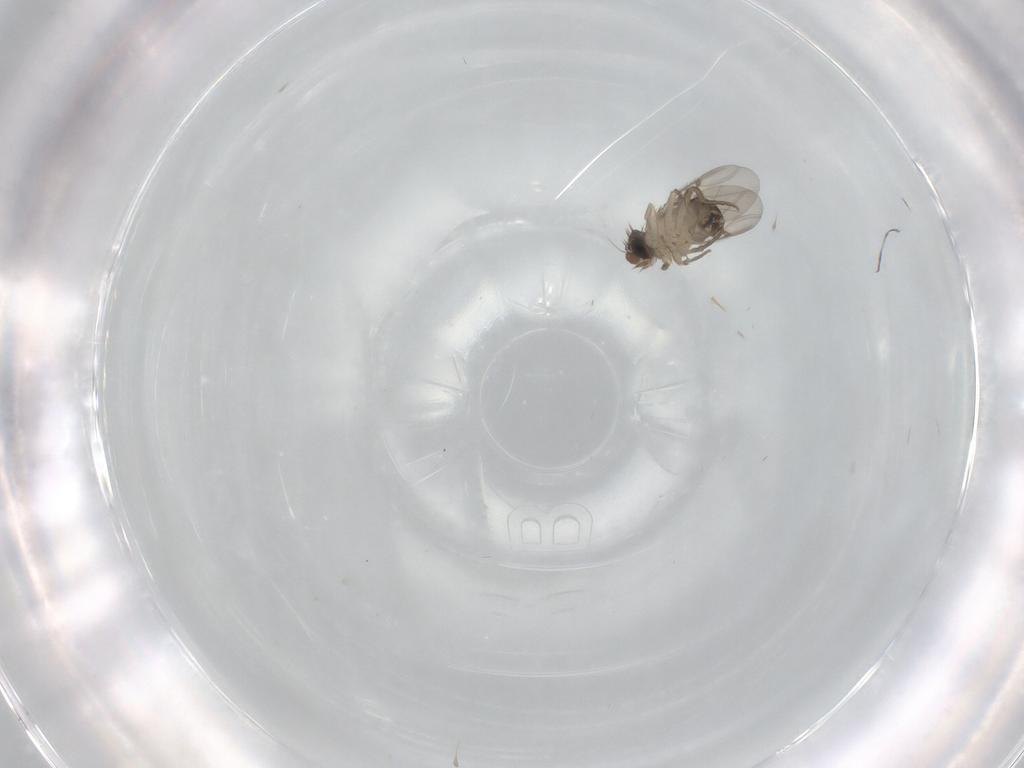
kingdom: Animalia
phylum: Arthropoda
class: Insecta
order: Diptera
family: Phoridae
